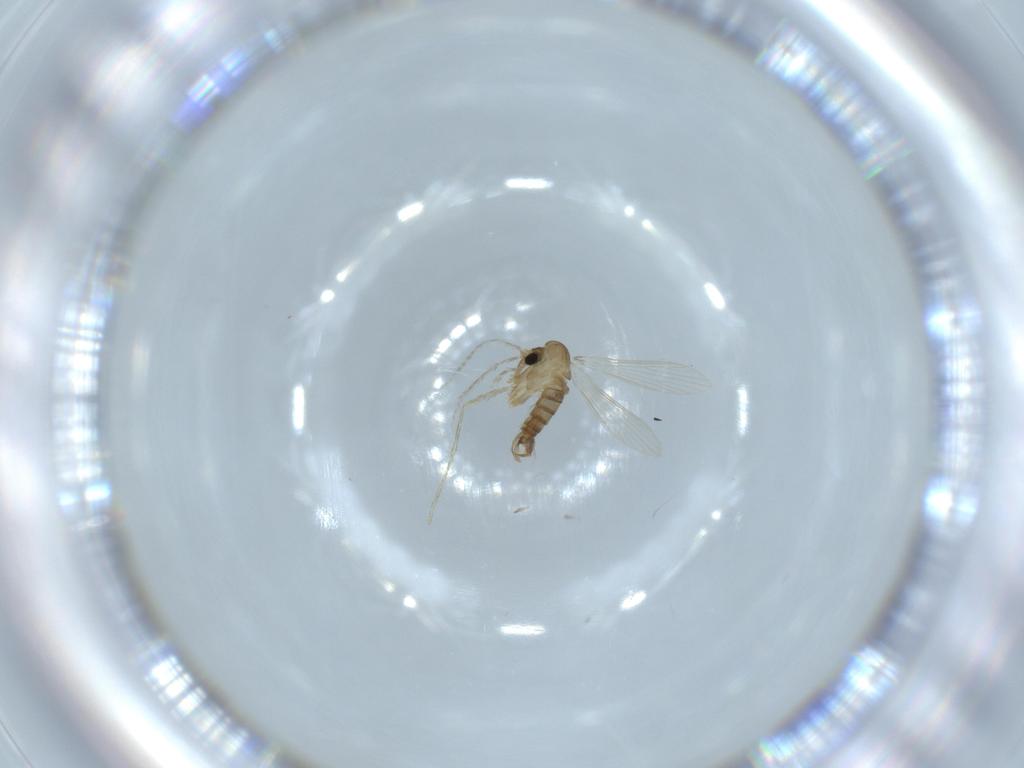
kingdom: Animalia
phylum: Arthropoda
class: Insecta
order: Diptera
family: Psychodidae
